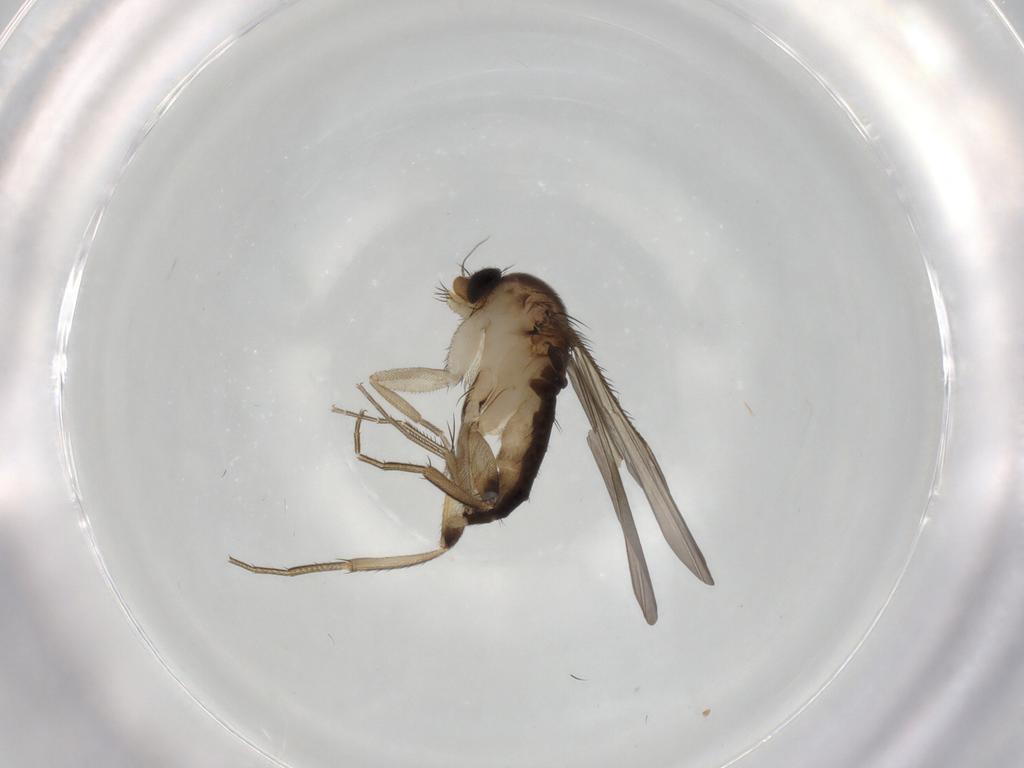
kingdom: Animalia
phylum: Arthropoda
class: Insecta
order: Diptera
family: Phoridae
